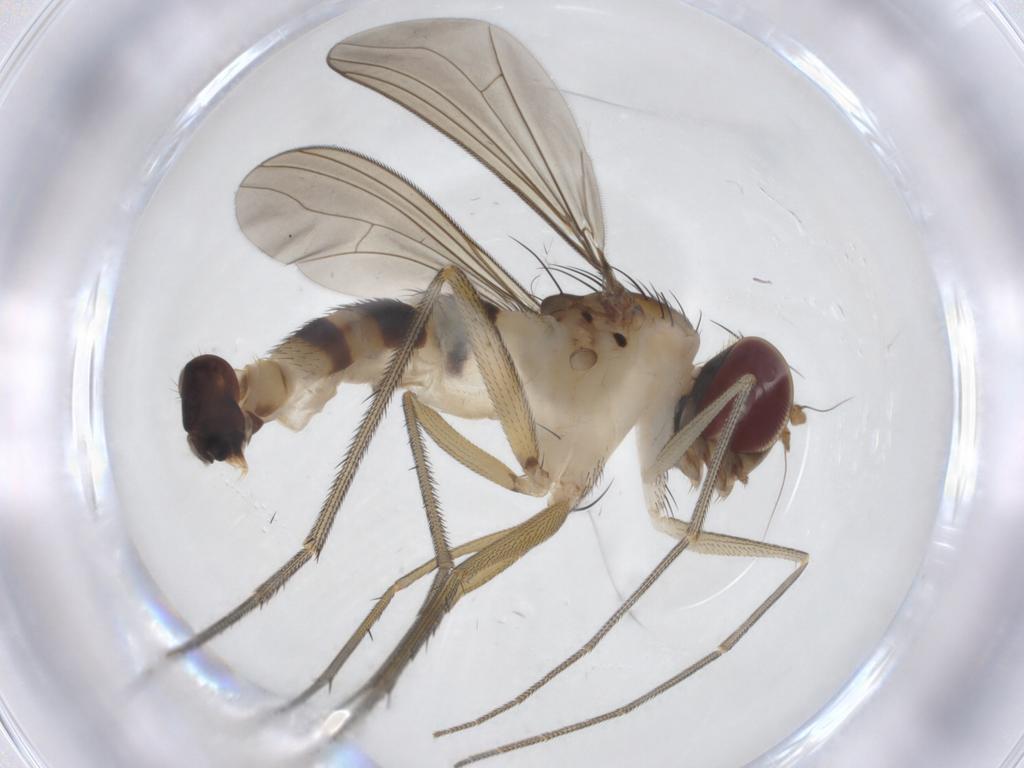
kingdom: Animalia
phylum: Arthropoda
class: Insecta
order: Diptera
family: Dolichopodidae
